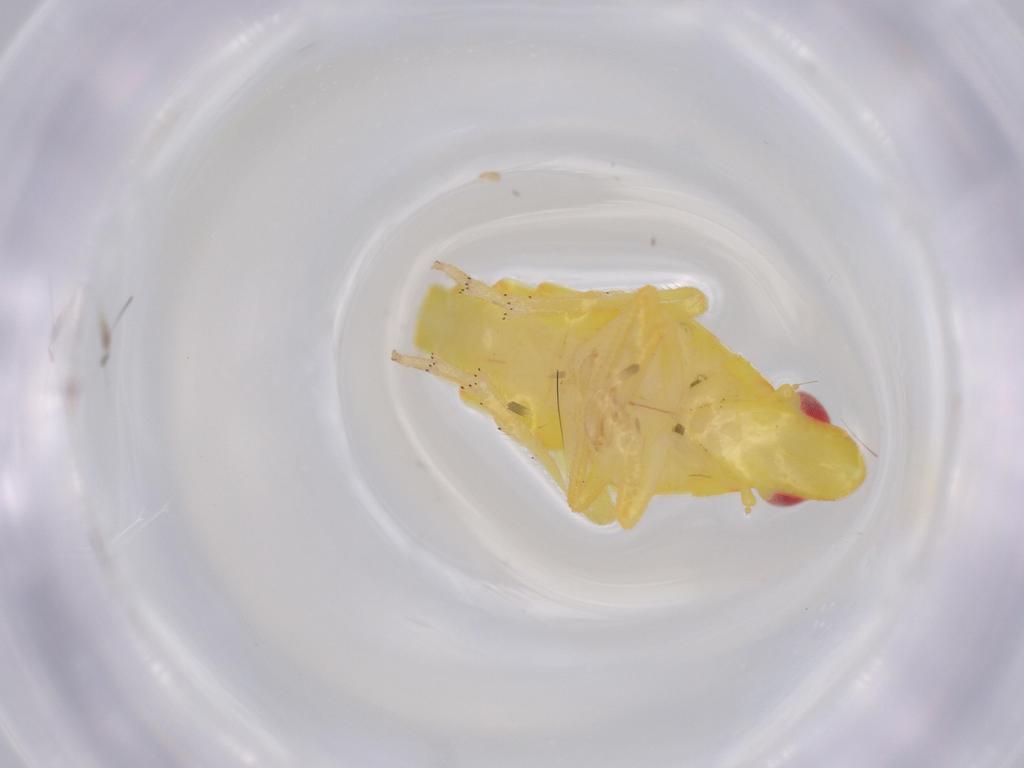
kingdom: Animalia
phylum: Arthropoda
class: Insecta
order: Hemiptera
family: Tropiduchidae
